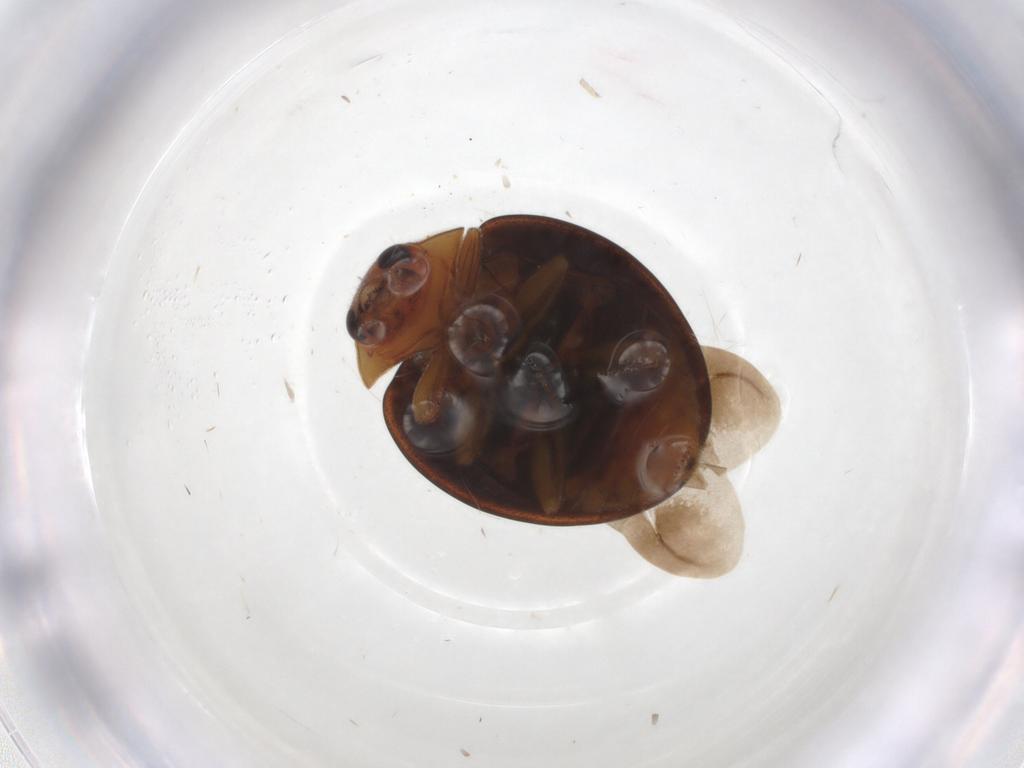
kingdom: Animalia
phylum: Arthropoda
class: Insecta
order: Coleoptera
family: Coccinellidae
